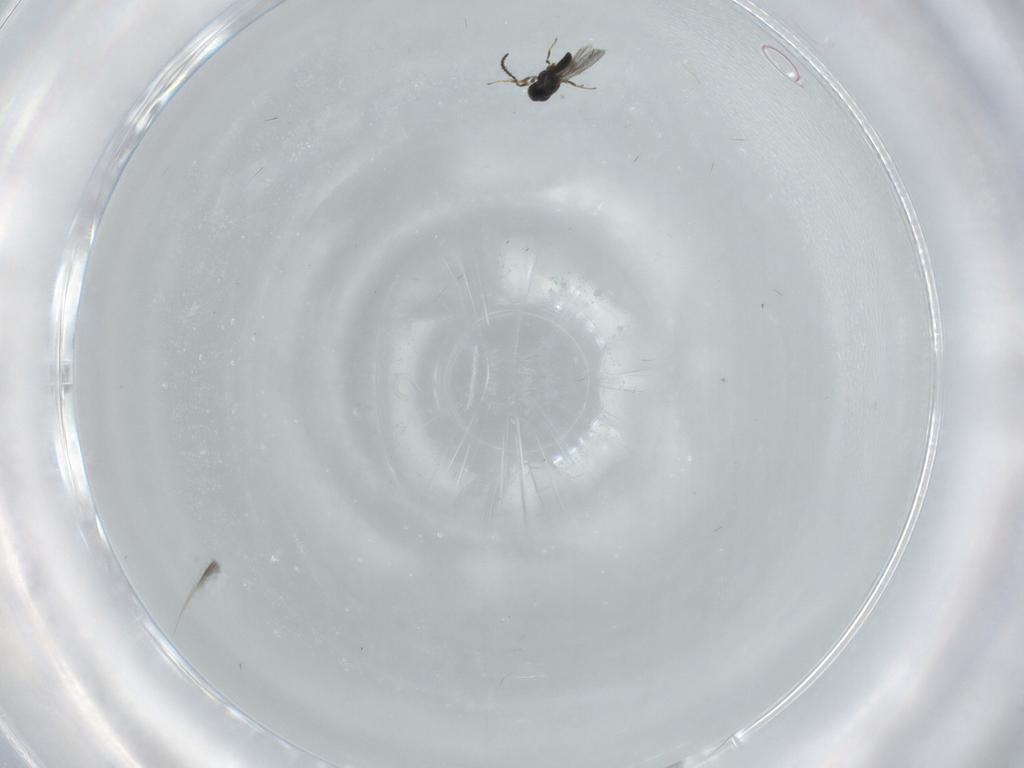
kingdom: Animalia
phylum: Arthropoda
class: Insecta
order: Hymenoptera
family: Scelionidae
